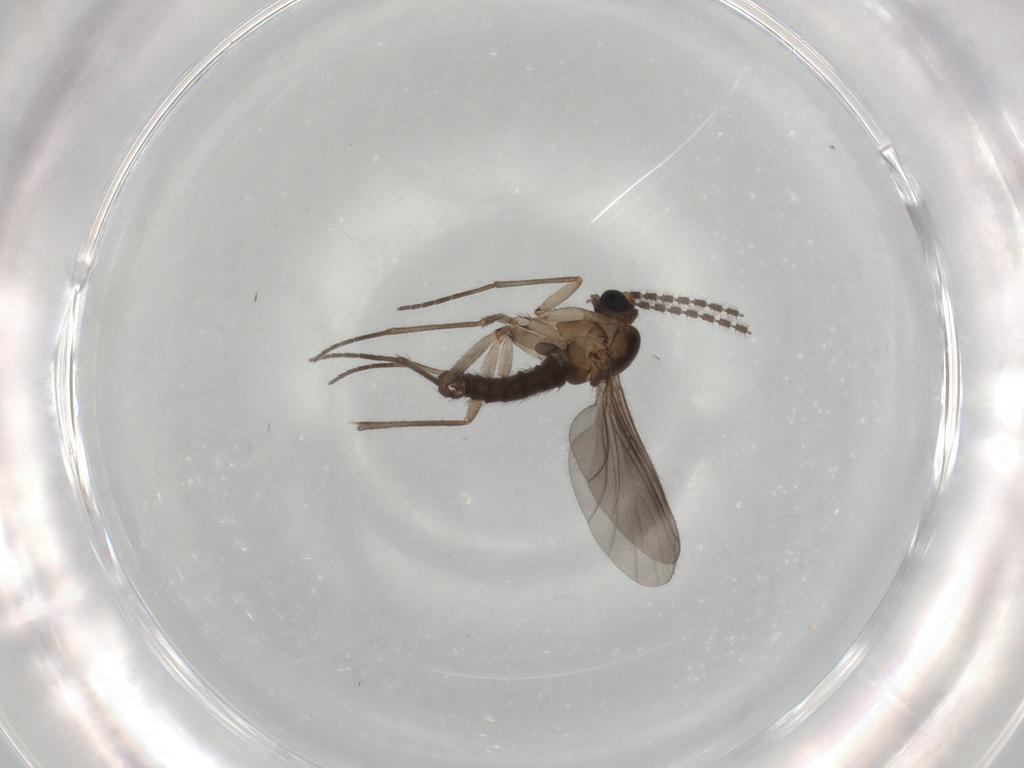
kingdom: Animalia
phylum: Arthropoda
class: Insecta
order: Diptera
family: Sciaridae
